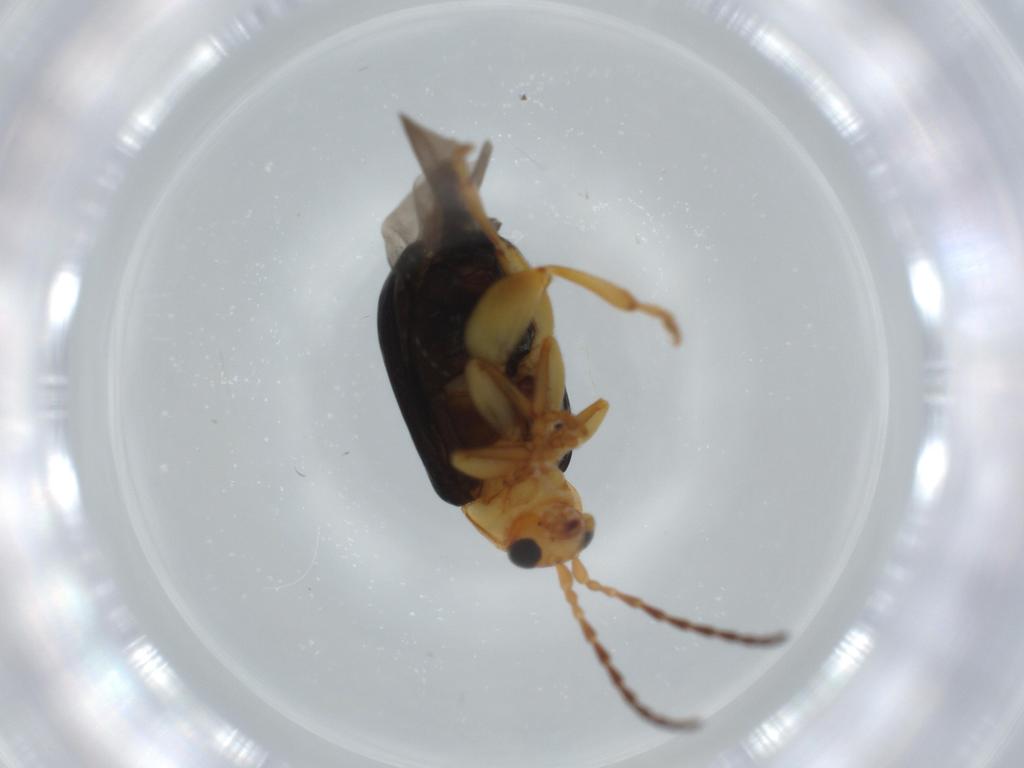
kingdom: Animalia
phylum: Arthropoda
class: Insecta
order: Coleoptera
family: Chrysomelidae
